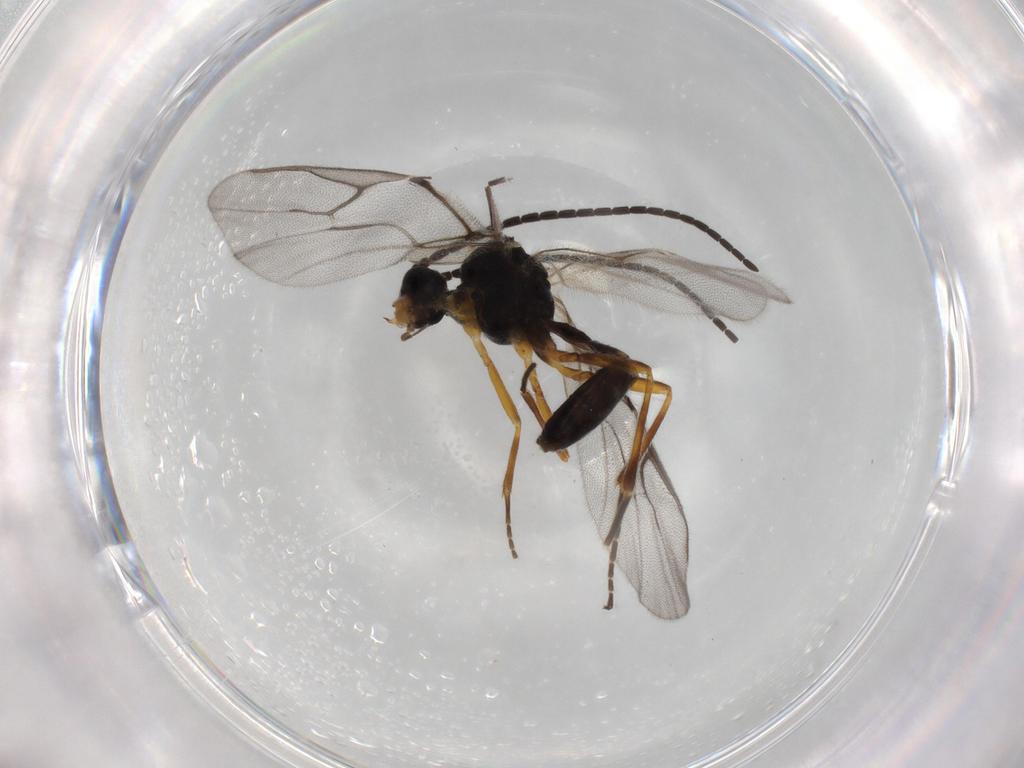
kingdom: Animalia
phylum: Arthropoda
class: Insecta
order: Hymenoptera
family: Braconidae
